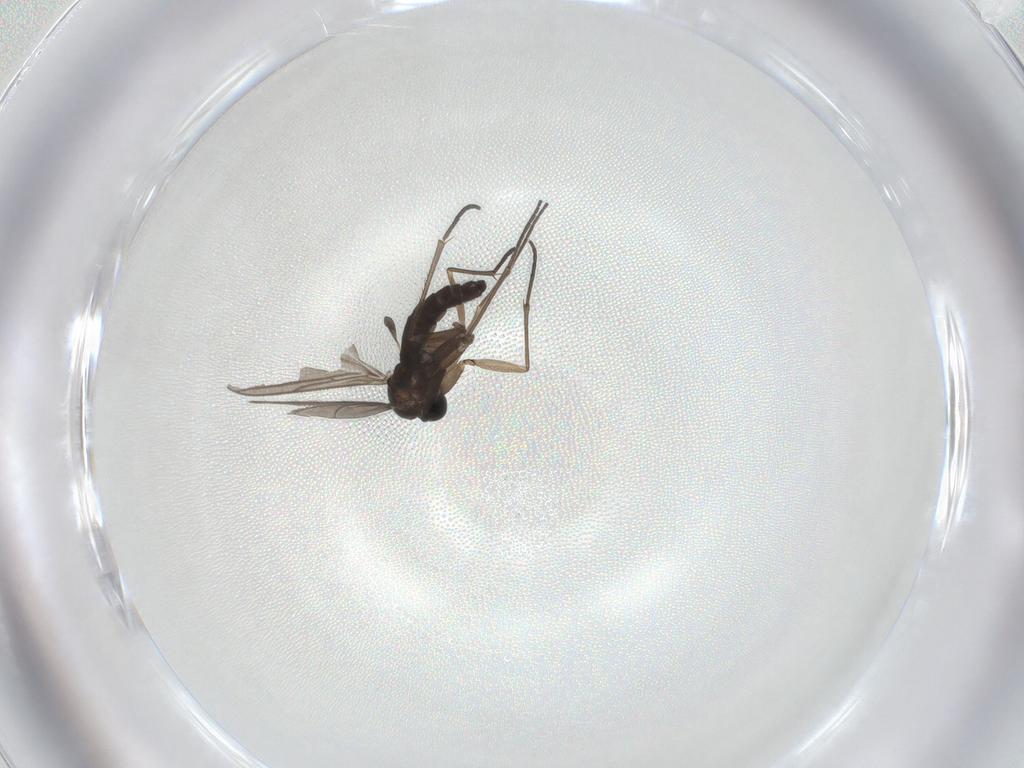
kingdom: Animalia
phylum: Arthropoda
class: Insecta
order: Diptera
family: Sciaridae
